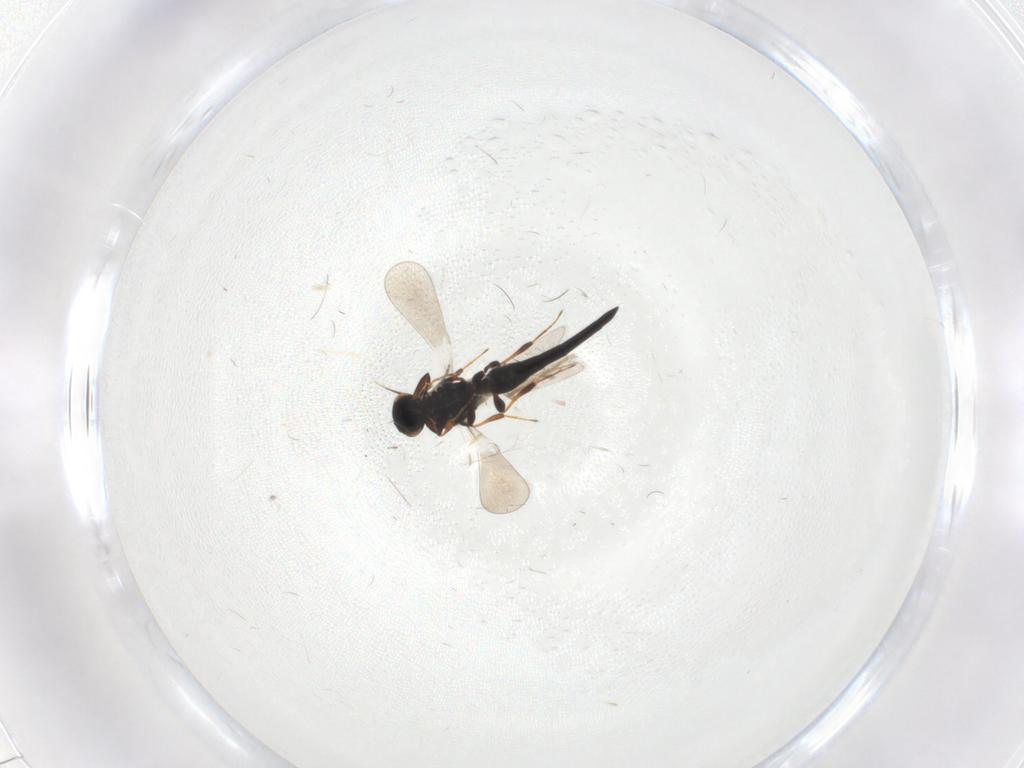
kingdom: Animalia
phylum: Arthropoda
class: Insecta
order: Hymenoptera
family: Platygastridae
